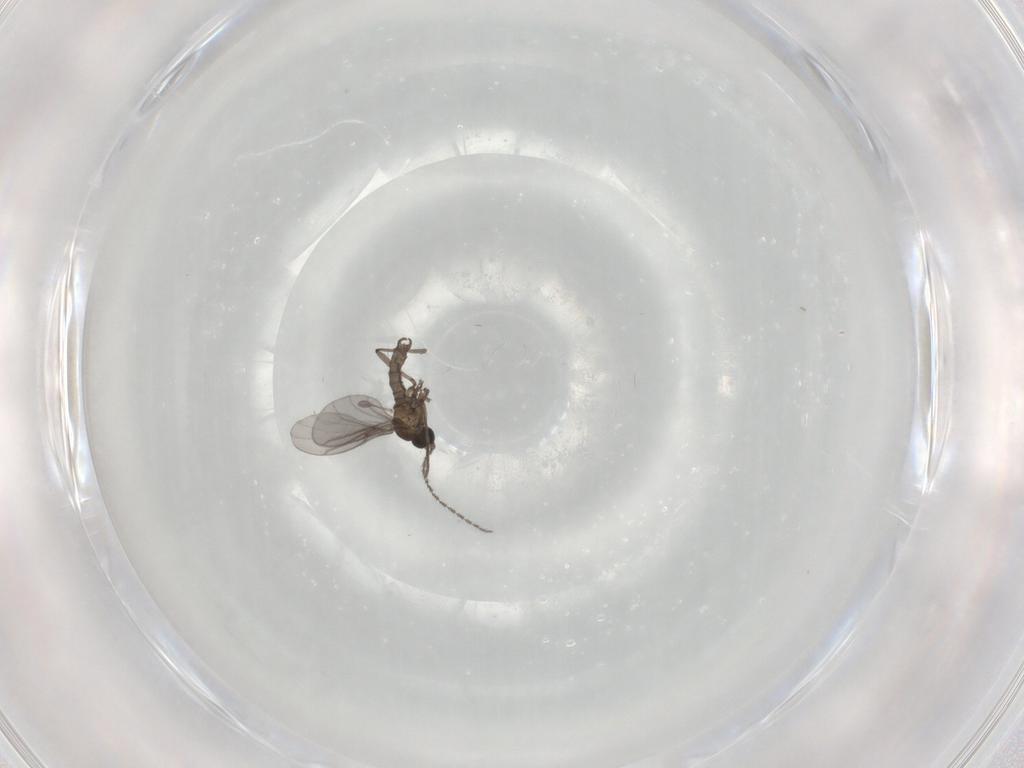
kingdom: Animalia
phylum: Arthropoda
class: Insecta
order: Diptera
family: Sciaridae
